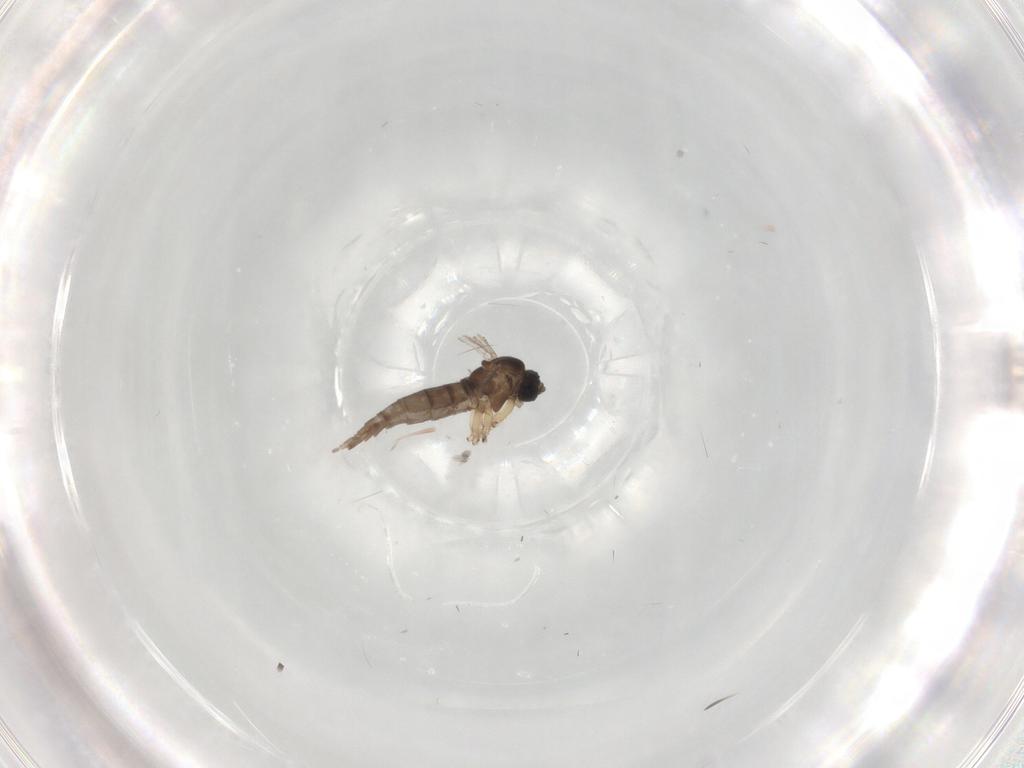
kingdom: Animalia
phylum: Arthropoda
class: Insecta
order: Diptera
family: Sciaridae
